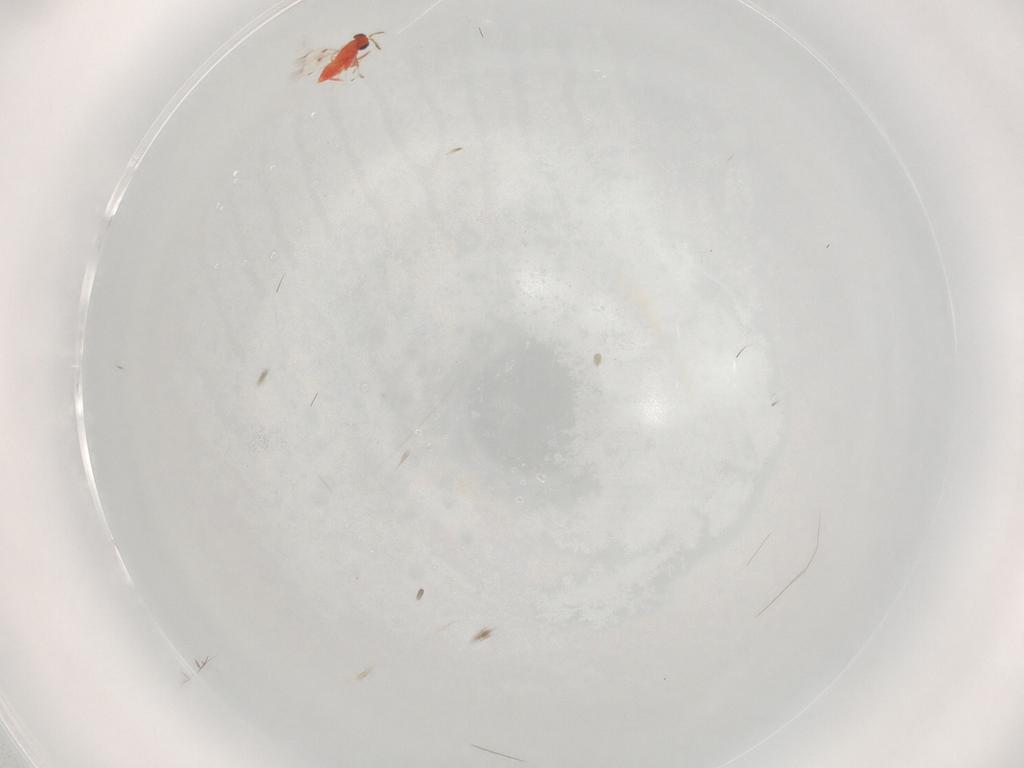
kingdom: Animalia
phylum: Arthropoda
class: Insecta
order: Hymenoptera
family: Trichogrammatidae
